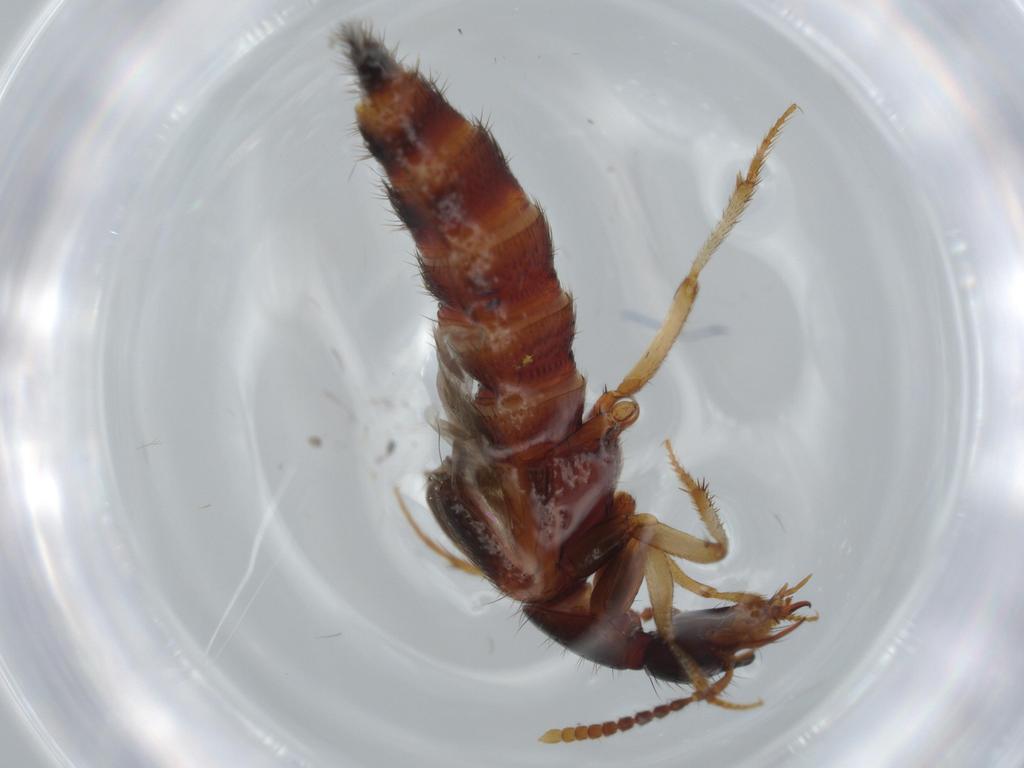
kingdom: Animalia
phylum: Arthropoda
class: Insecta
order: Coleoptera
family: Staphylinidae
